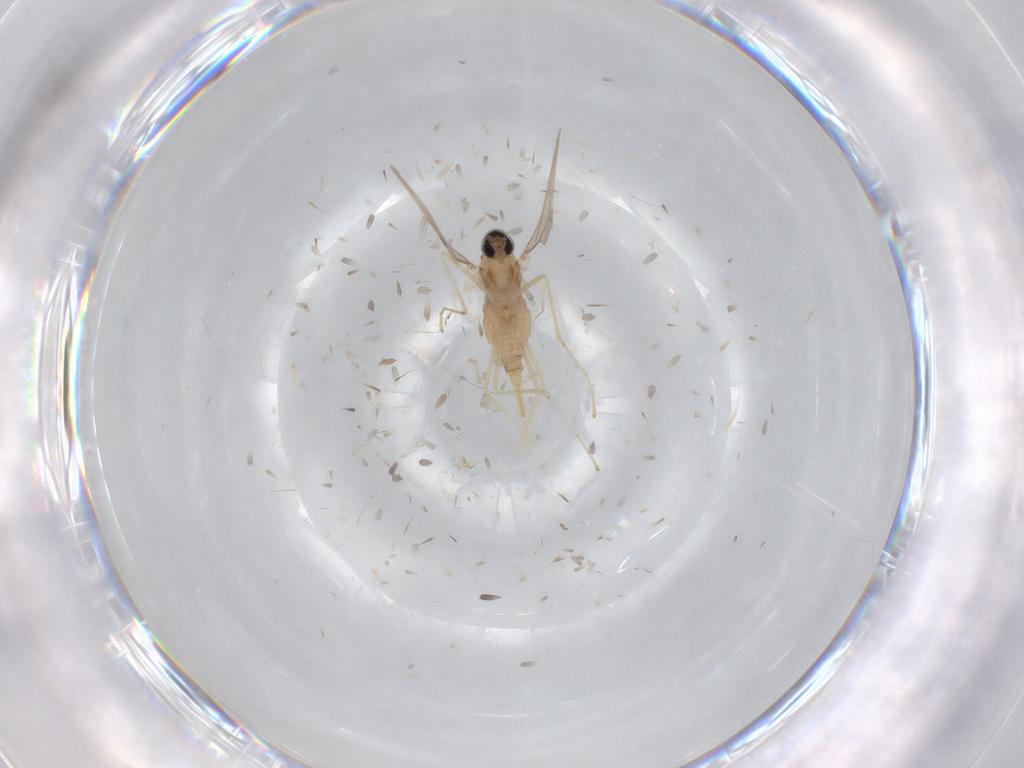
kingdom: Animalia
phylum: Arthropoda
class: Insecta
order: Diptera
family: Cecidomyiidae
